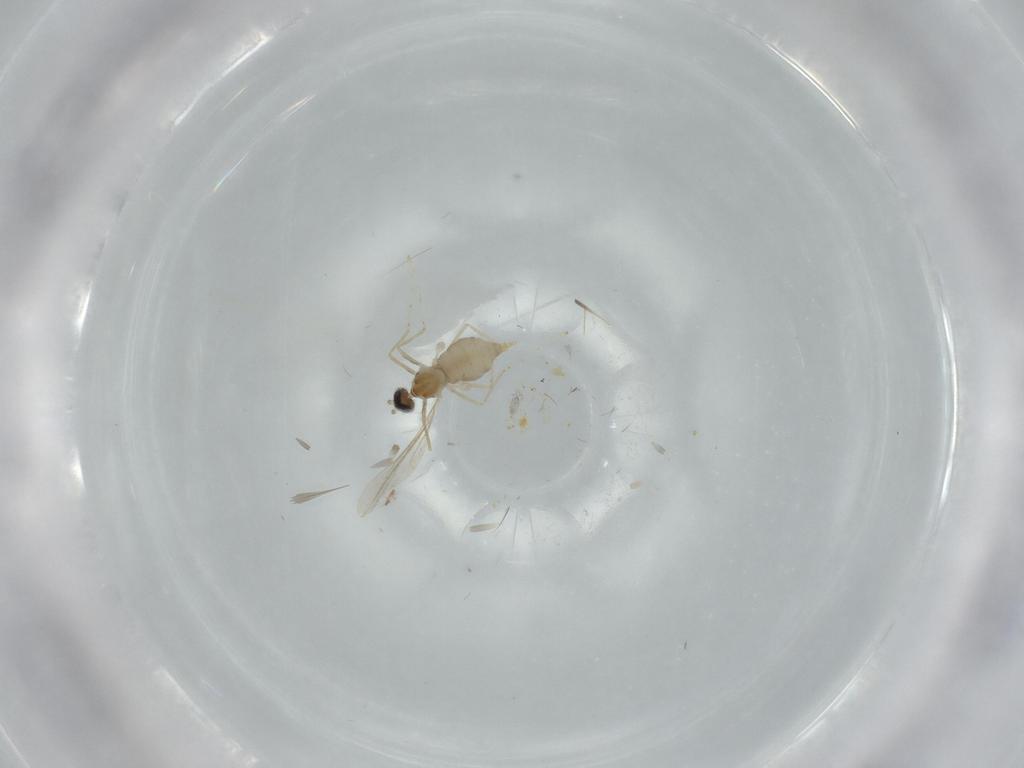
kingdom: Animalia
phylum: Arthropoda
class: Insecta
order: Diptera
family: Cecidomyiidae
